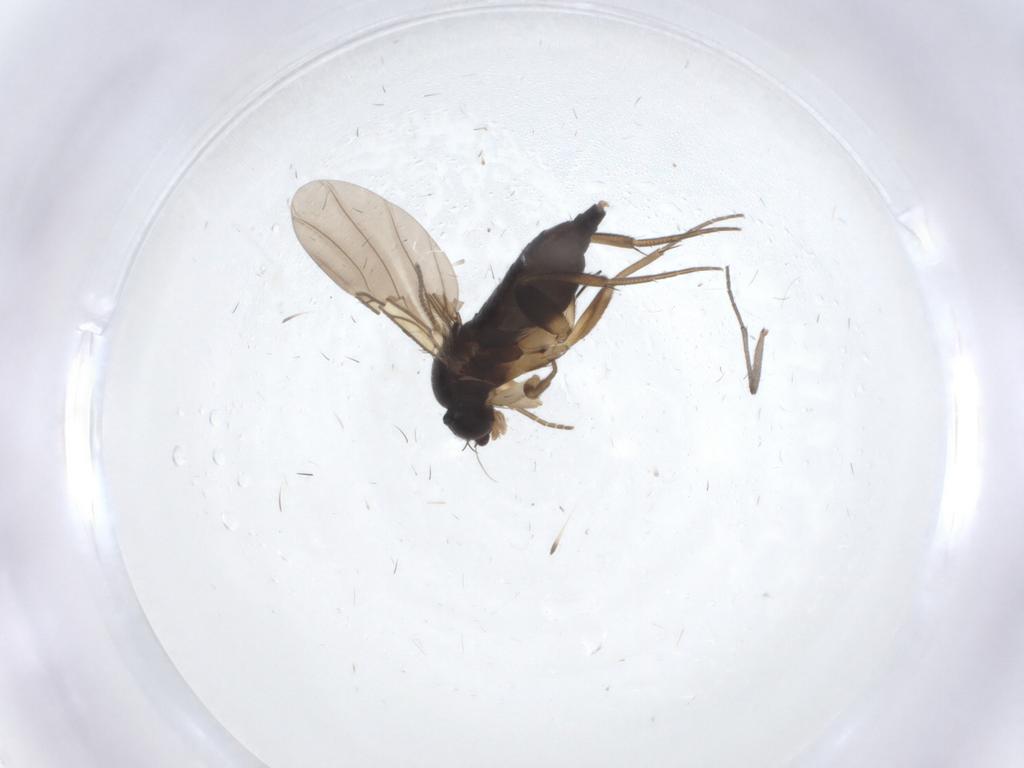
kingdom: Animalia
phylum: Arthropoda
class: Insecta
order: Diptera
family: Phoridae
